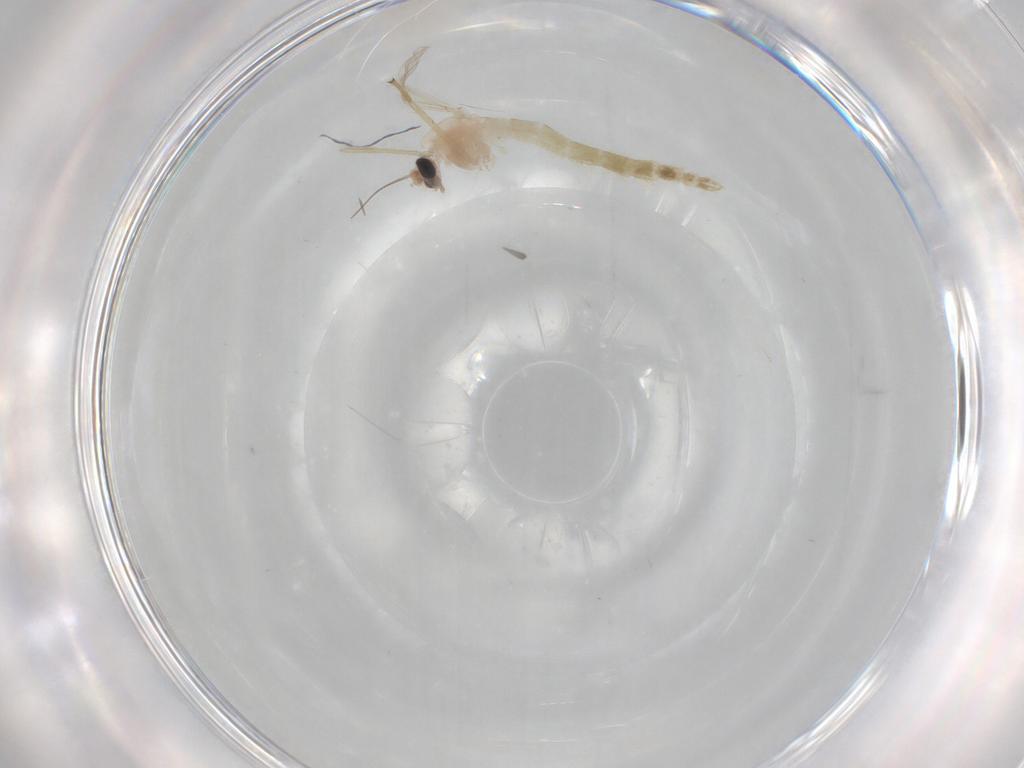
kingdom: Animalia
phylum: Arthropoda
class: Insecta
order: Diptera
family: Chironomidae
